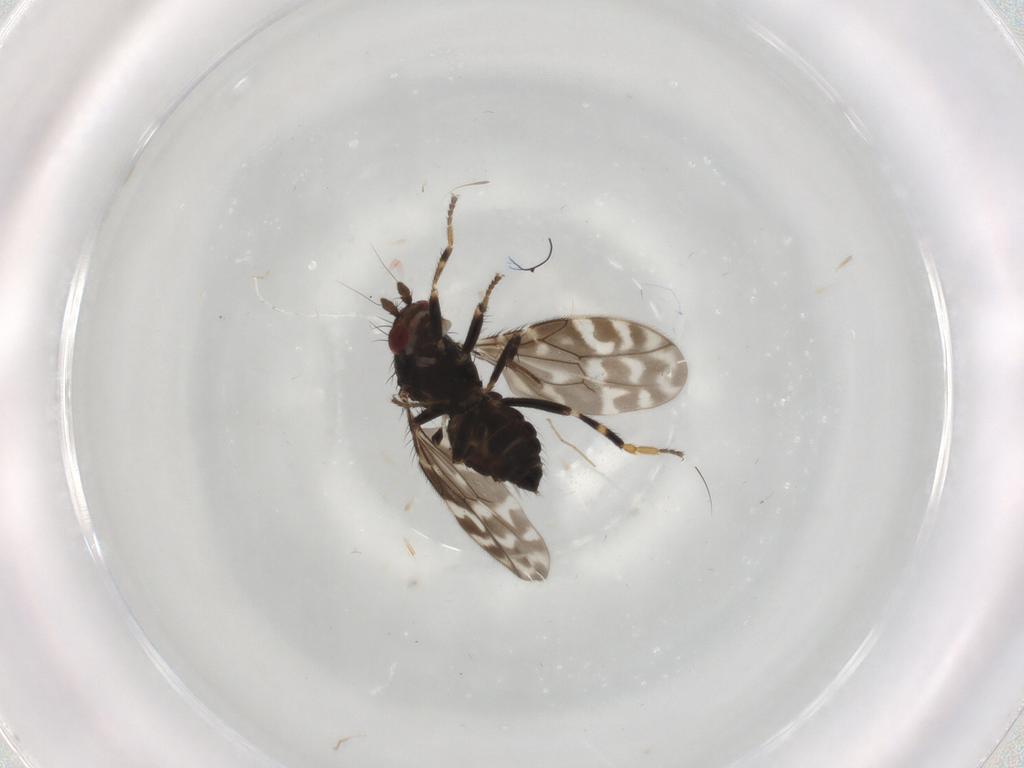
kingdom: Animalia
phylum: Arthropoda
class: Insecta
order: Diptera
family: Sphaeroceridae
